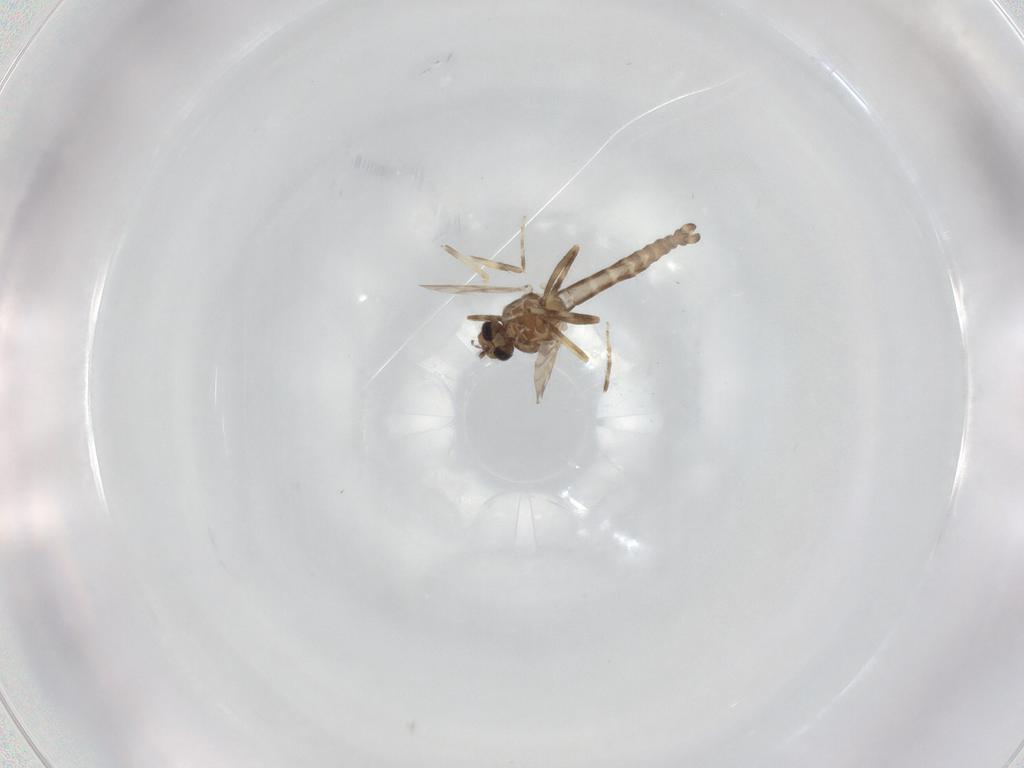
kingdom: Animalia
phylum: Arthropoda
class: Insecta
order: Diptera
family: Ceratopogonidae
